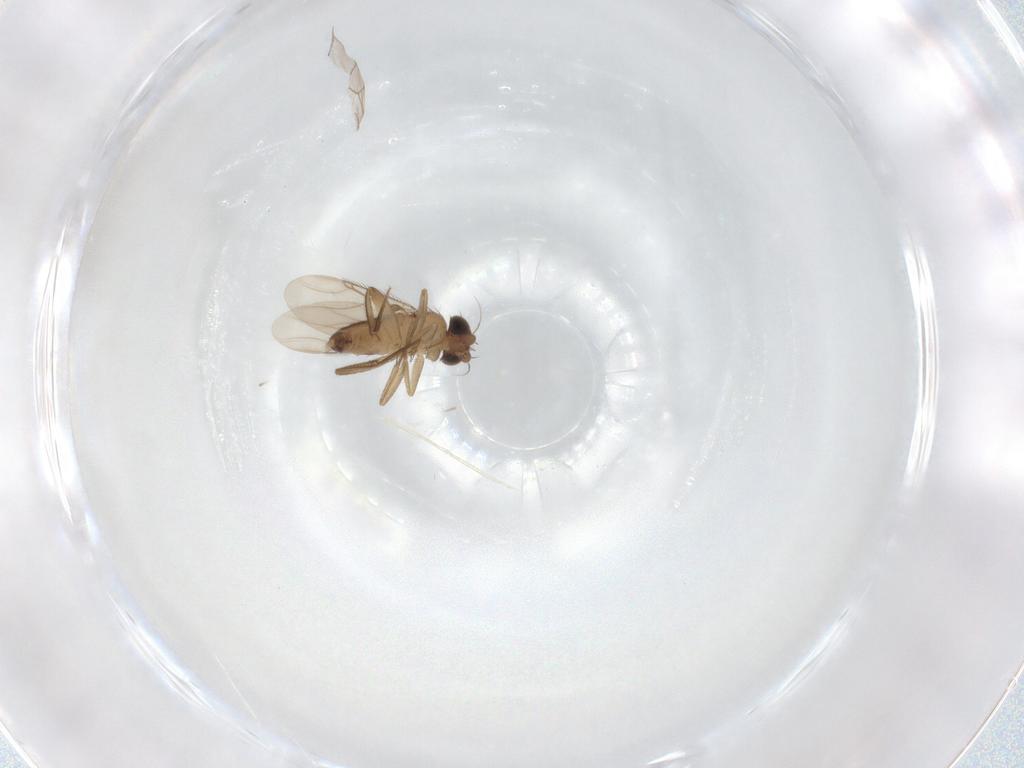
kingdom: Animalia
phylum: Arthropoda
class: Insecta
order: Diptera
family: Phoridae
